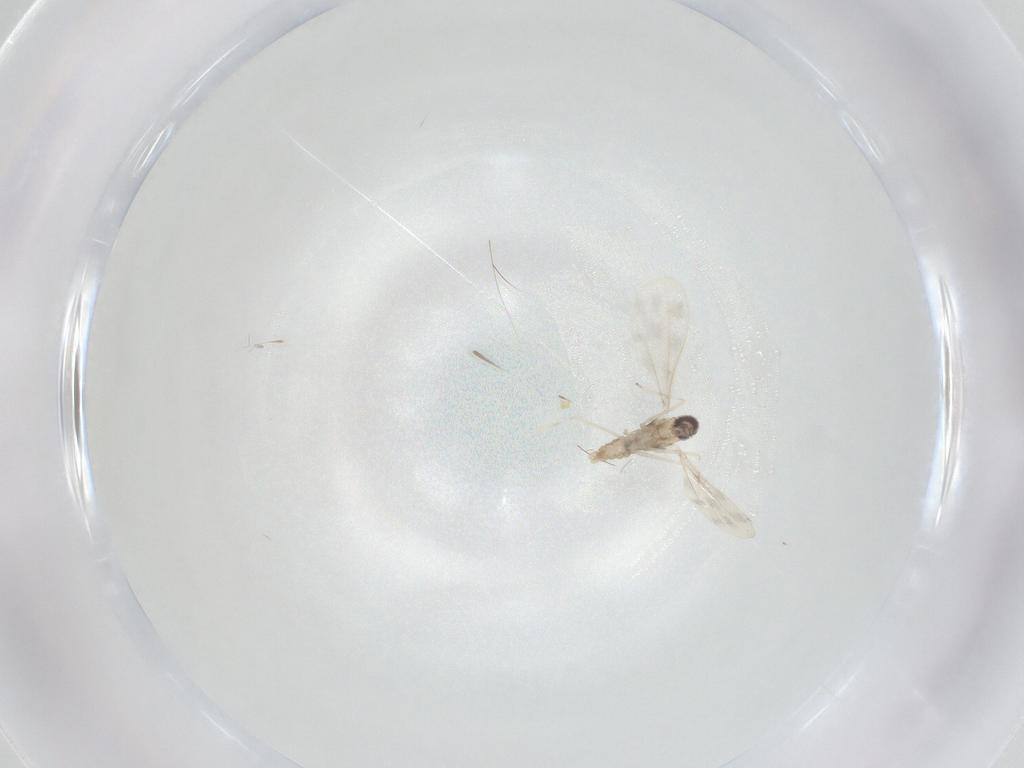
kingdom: Animalia
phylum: Arthropoda
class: Insecta
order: Diptera
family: Cecidomyiidae
